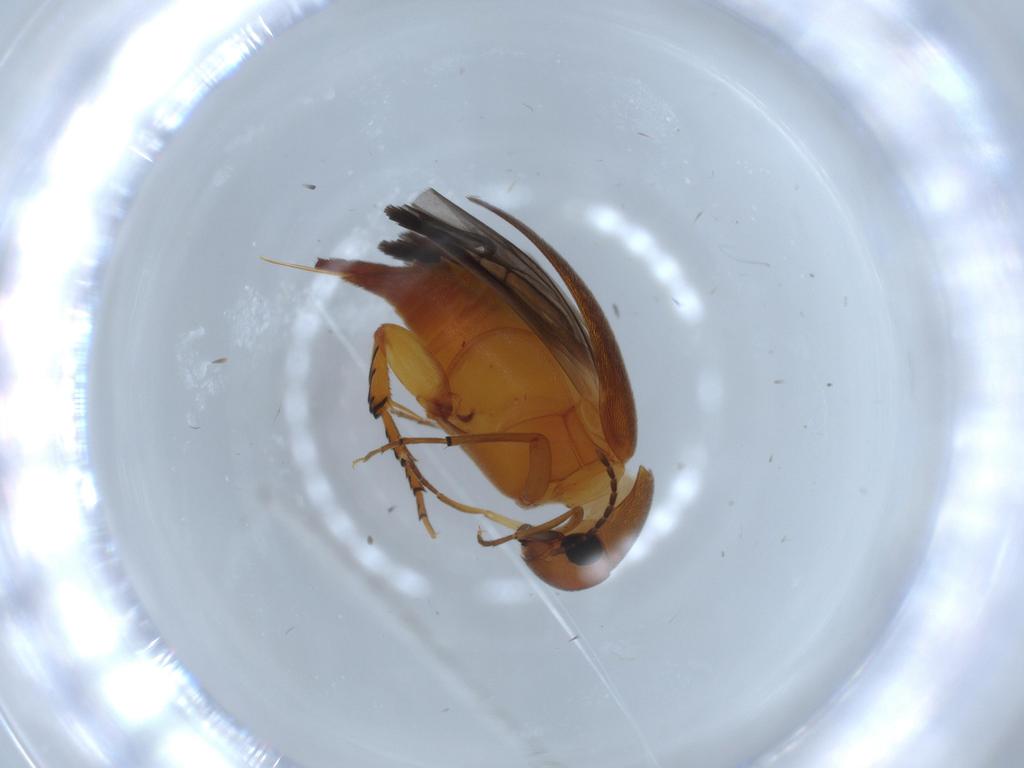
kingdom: Animalia
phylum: Arthropoda
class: Insecta
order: Coleoptera
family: Mordellidae
